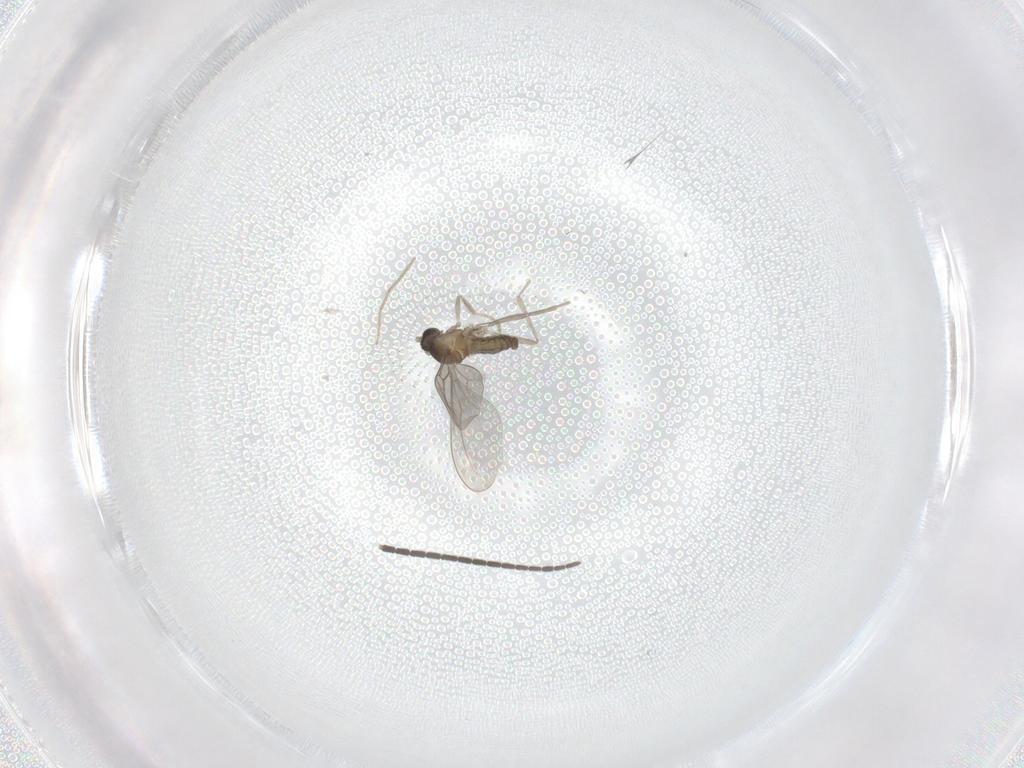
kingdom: Animalia
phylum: Arthropoda
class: Insecta
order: Diptera
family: Sciaridae
